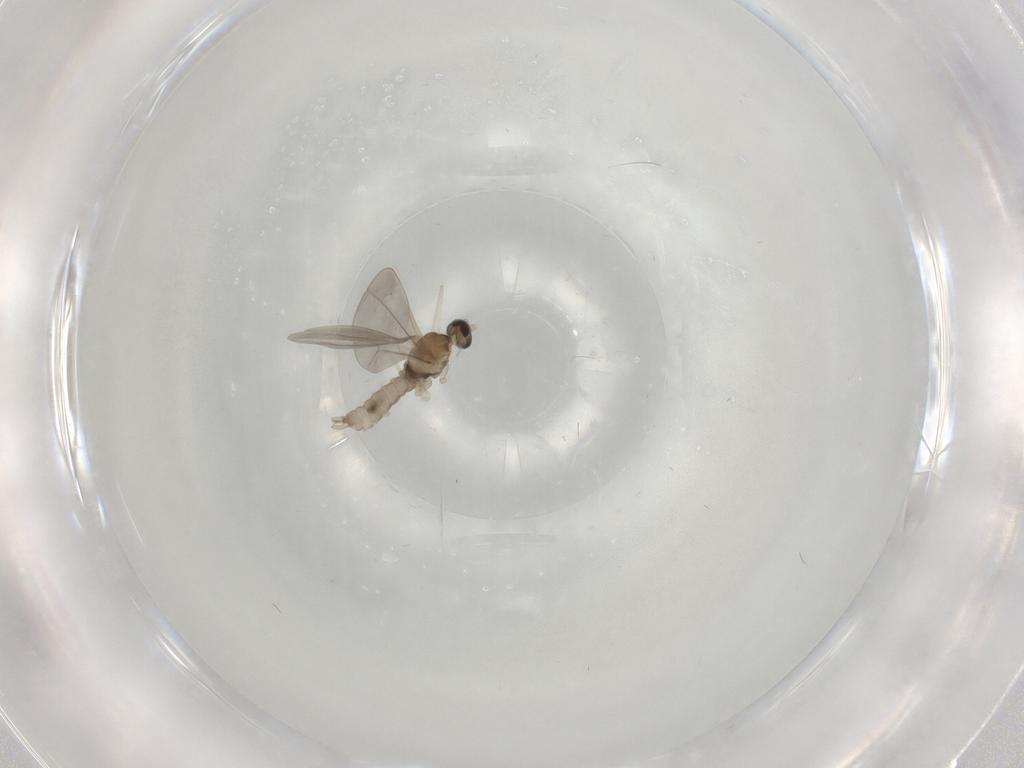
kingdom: Animalia
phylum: Arthropoda
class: Insecta
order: Diptera
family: Cecidomyiidae
